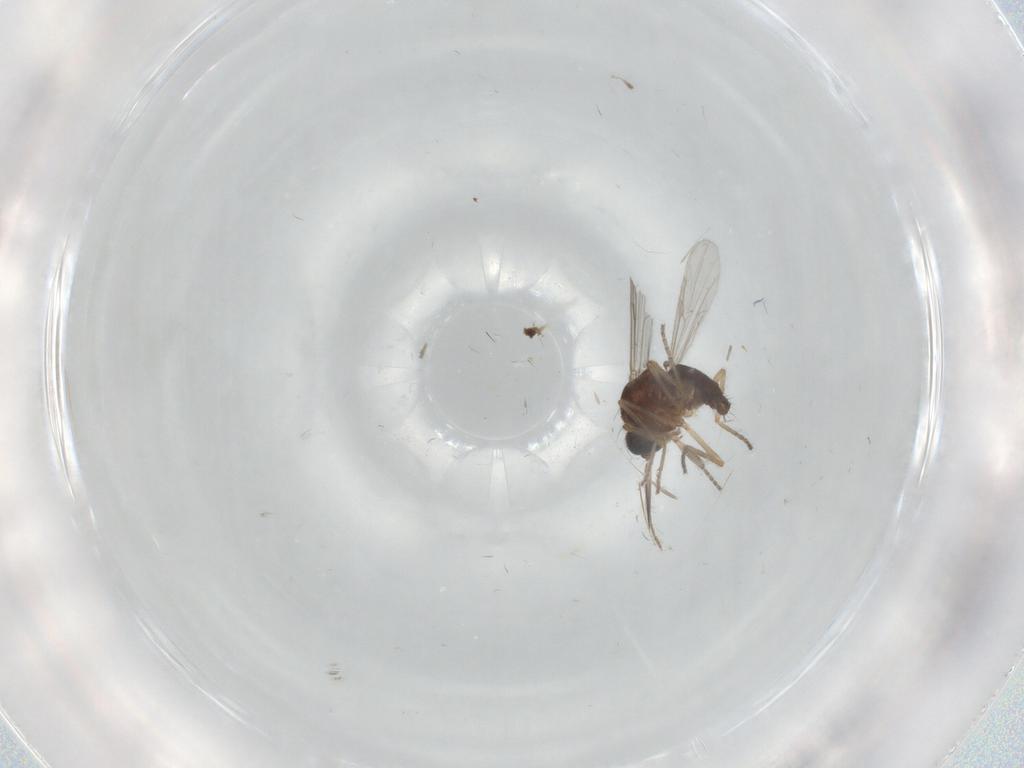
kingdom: Animalia
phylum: Arthropoda
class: Insecta
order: Diptera
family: Ceratopogonidae
